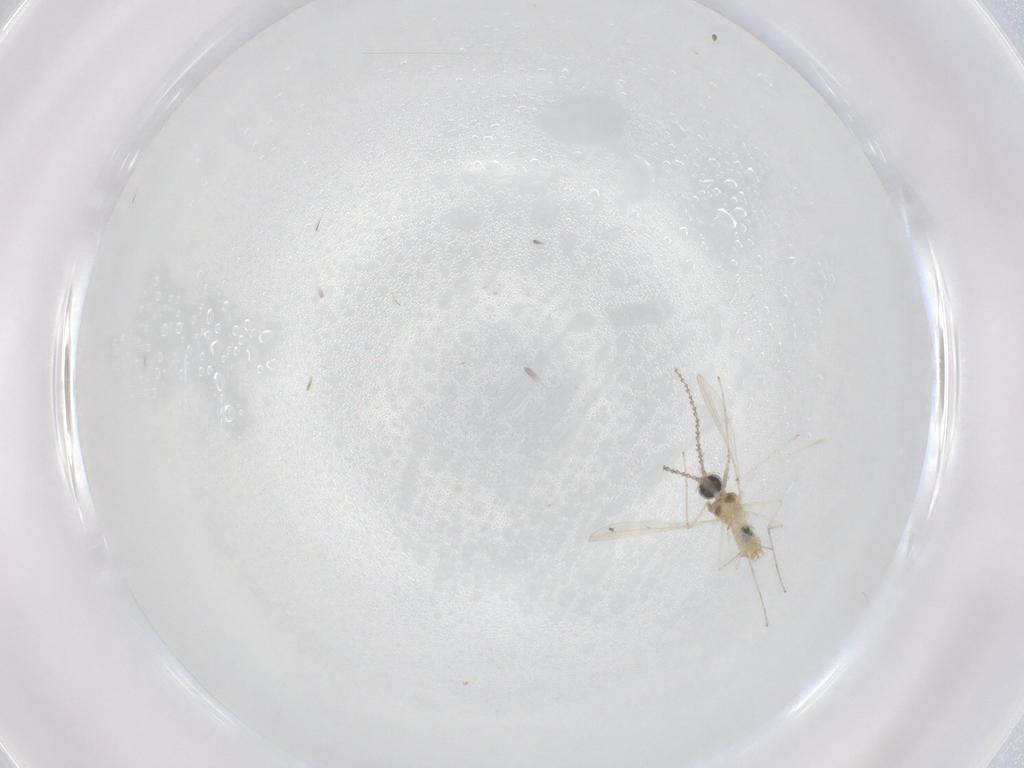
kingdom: Animalia
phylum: Arthropoda
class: Insecta
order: Diptera
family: Cecidomyiidae
